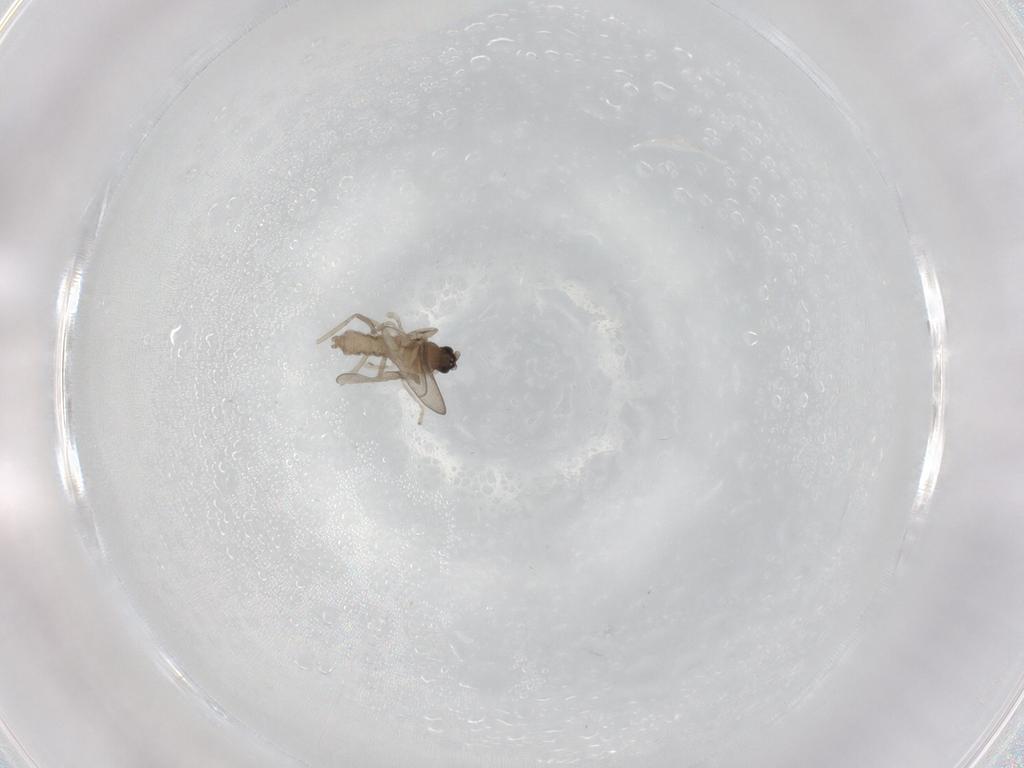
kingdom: Animalia
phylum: Arthropoda
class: Insecta
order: Diptera
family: Cecidomyiidae
